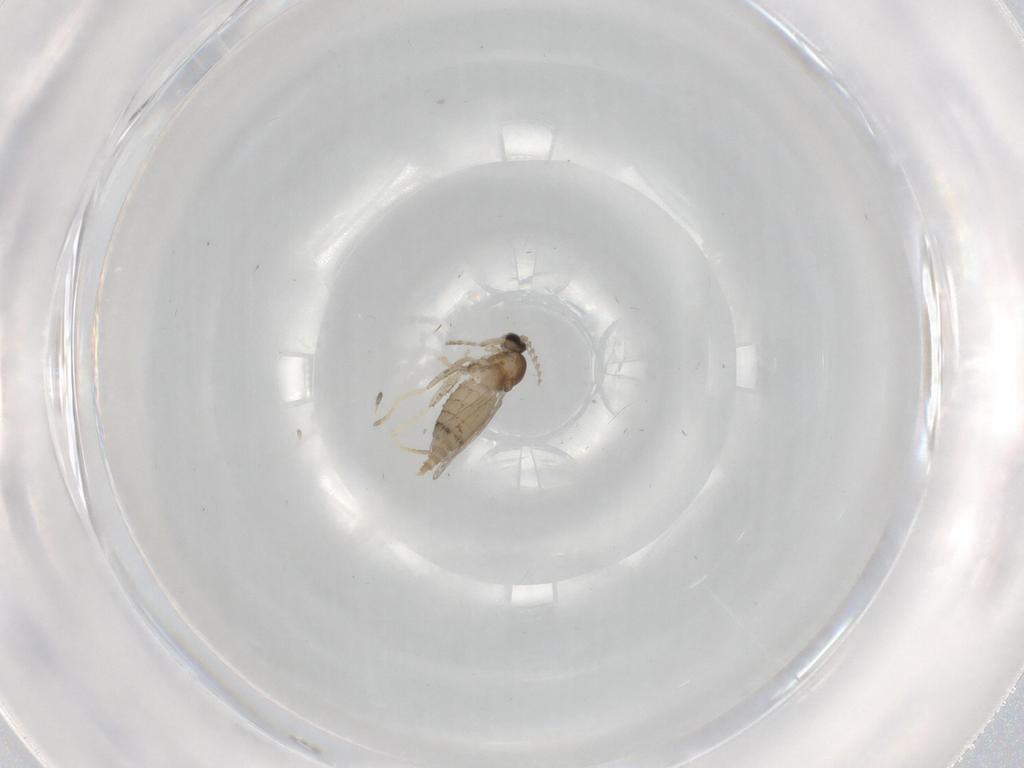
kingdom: Animalia
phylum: Arthropoda
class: Insecta
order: Diptera
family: Cecidomyiidae
